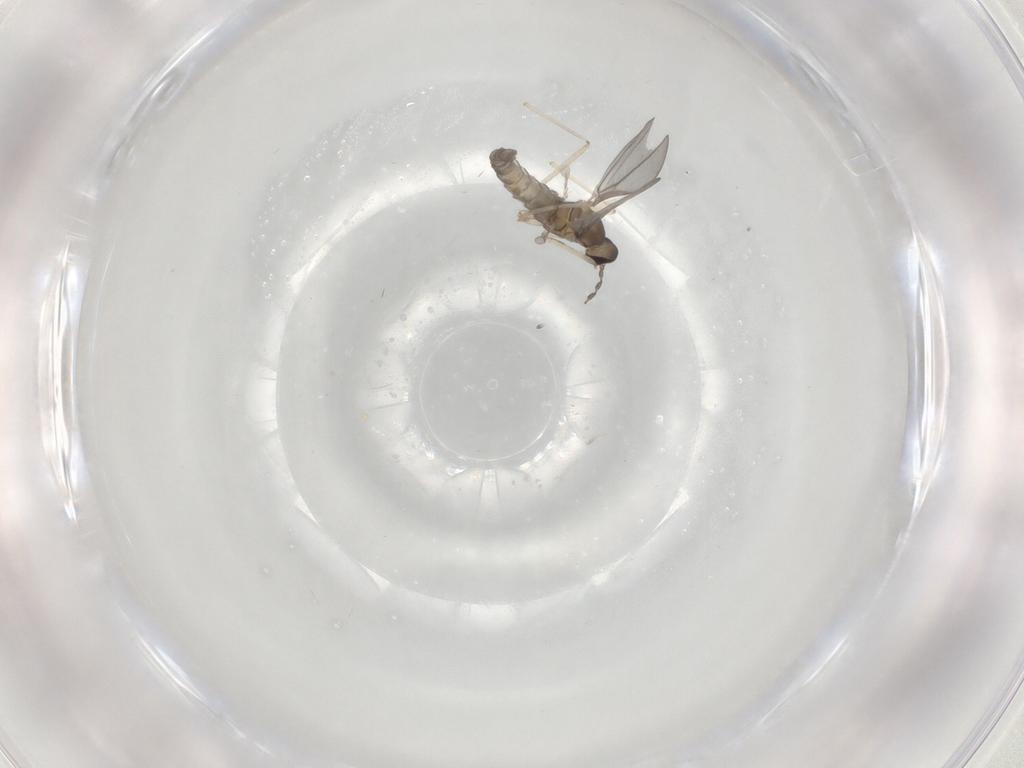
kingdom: Animalia
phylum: Arthropoda
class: Insecta
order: Diptera
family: Cecidomyiidae
